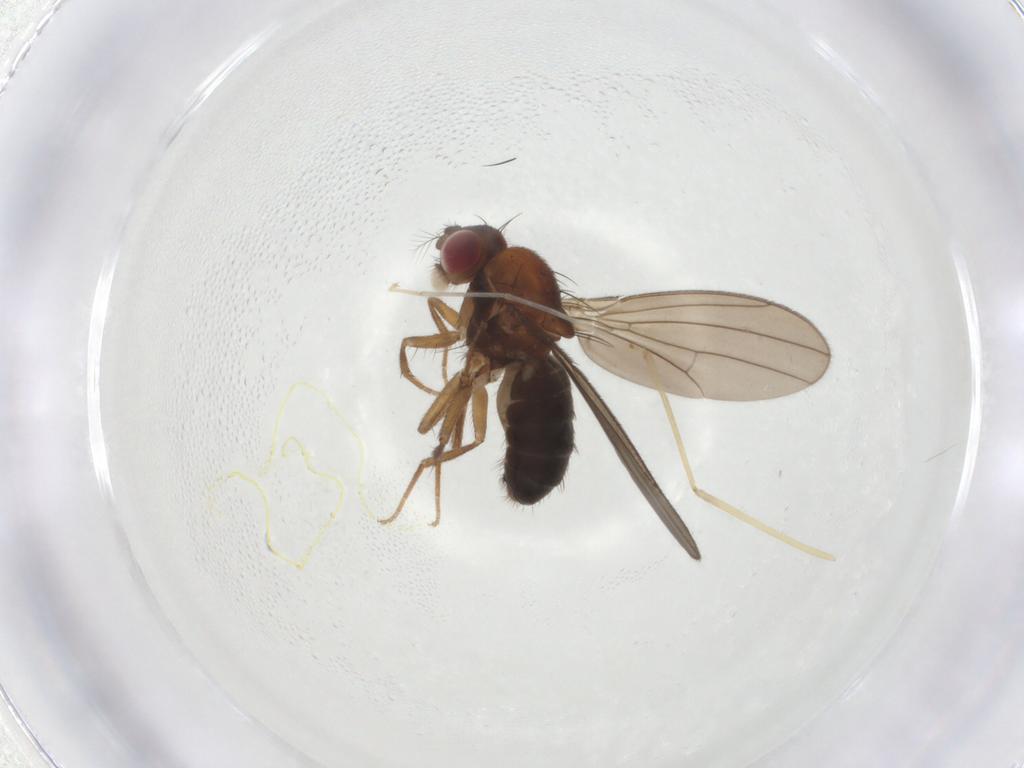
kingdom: Animalia
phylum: Arthropoda
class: Insecta
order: Diptera
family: Drosophilidae
